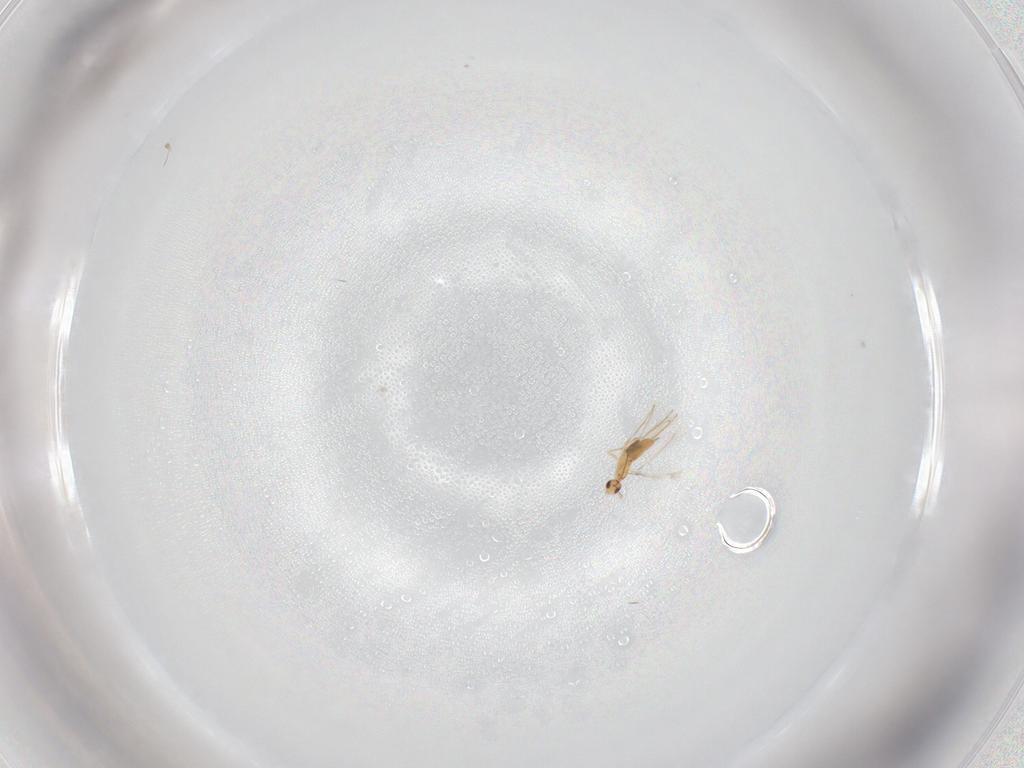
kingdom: Animalia
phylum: Arthropoda
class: Insecta
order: Hymenoptera
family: Mymaridae
